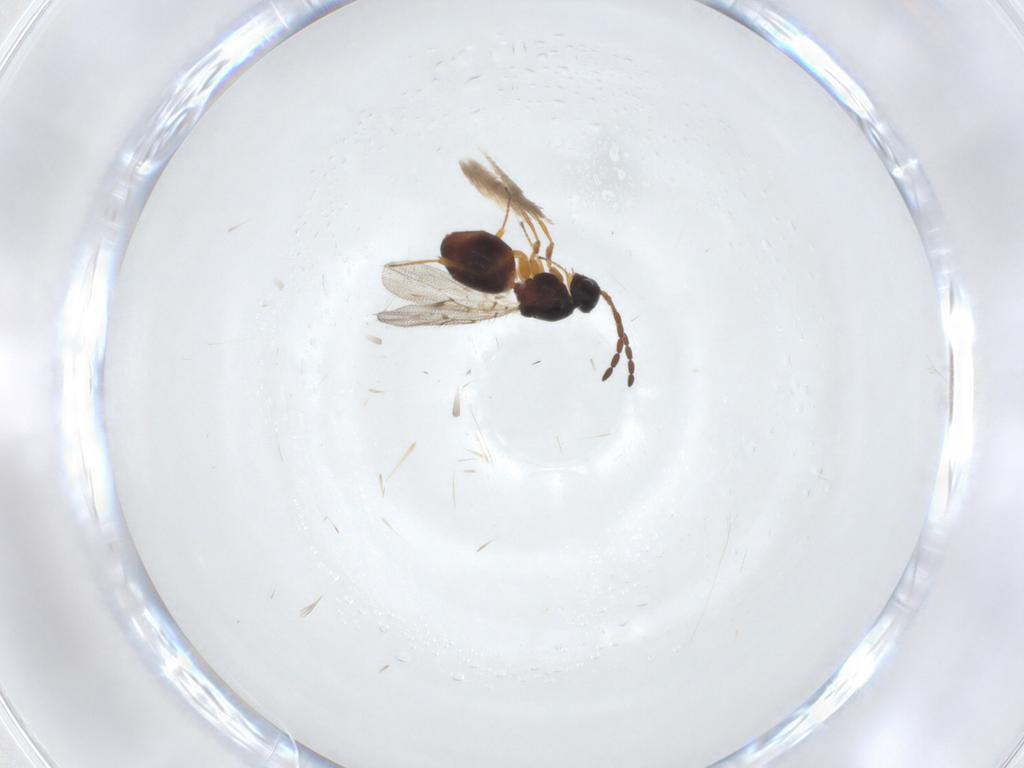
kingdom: Animalia
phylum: Arthropoda
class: Insecta
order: Hymenoptera
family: Figitidae
